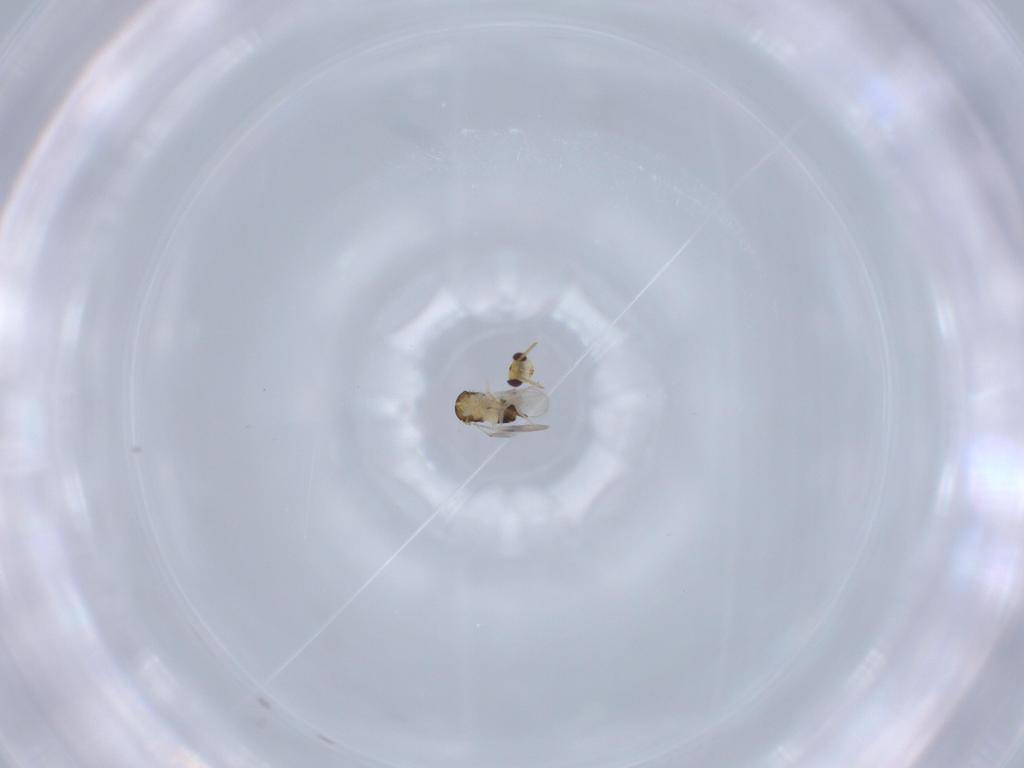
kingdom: Animalia
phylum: Arthropoda
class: Insecta
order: Hymenoptera
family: Aphelinidae
